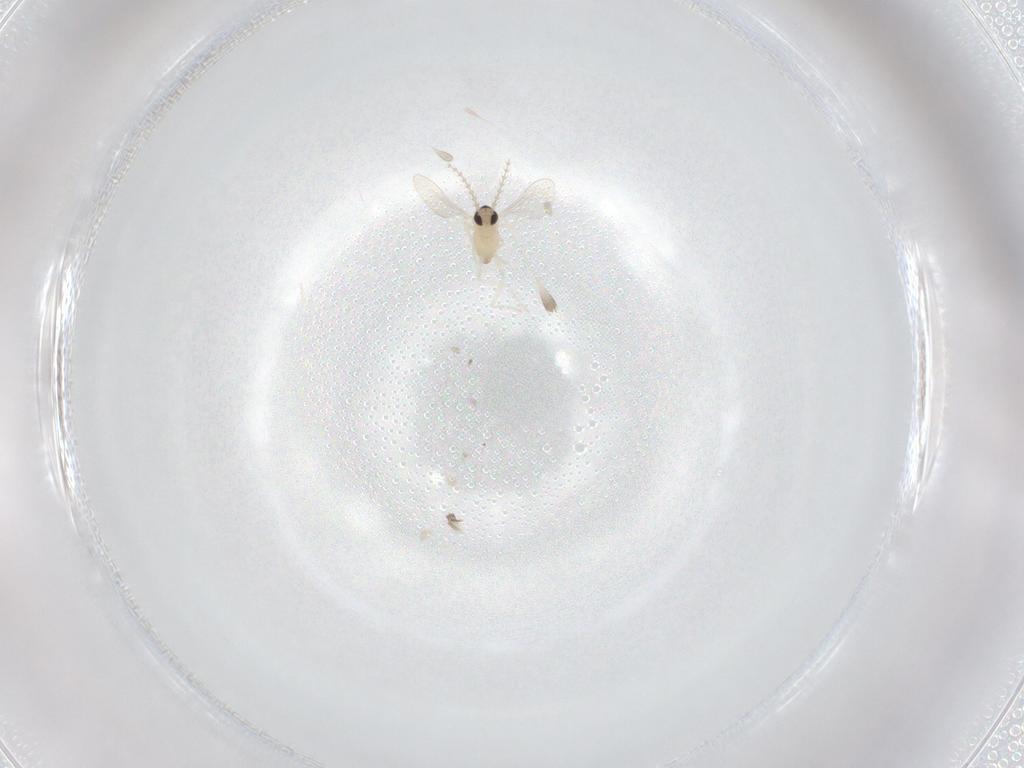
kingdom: Animalia
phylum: Arthropoda
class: Insecta
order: Diptera
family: Cecidomyiidae
